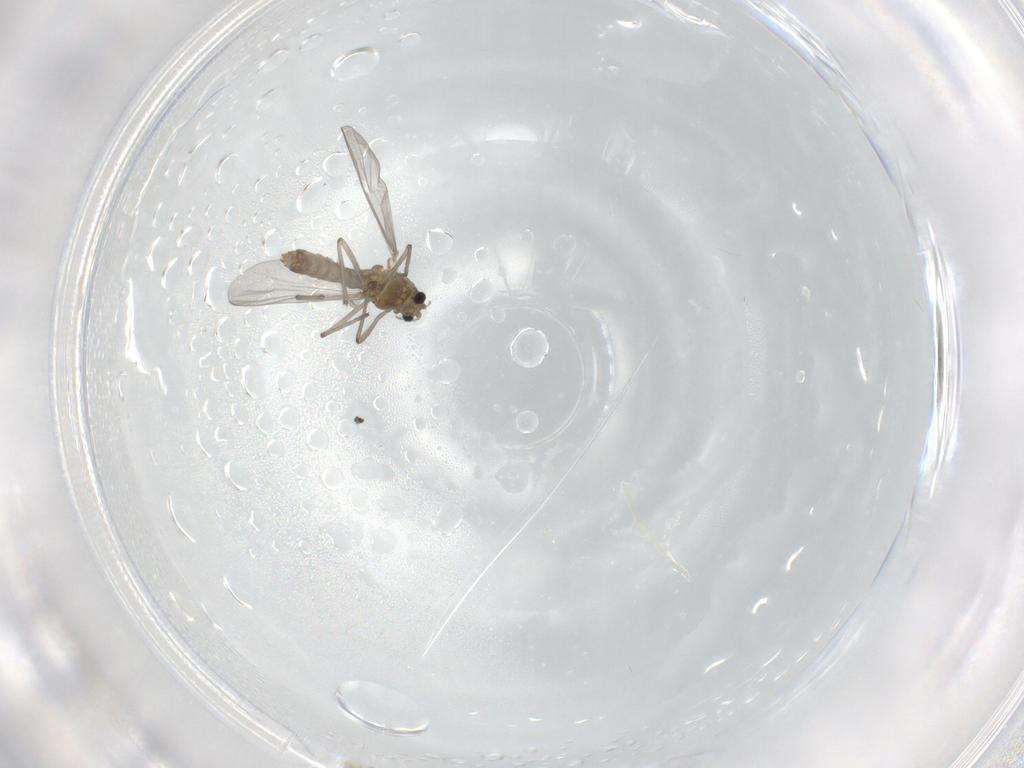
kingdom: Animalia
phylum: Arthropoda
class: Insecta
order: Diptera
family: Chironomidae
